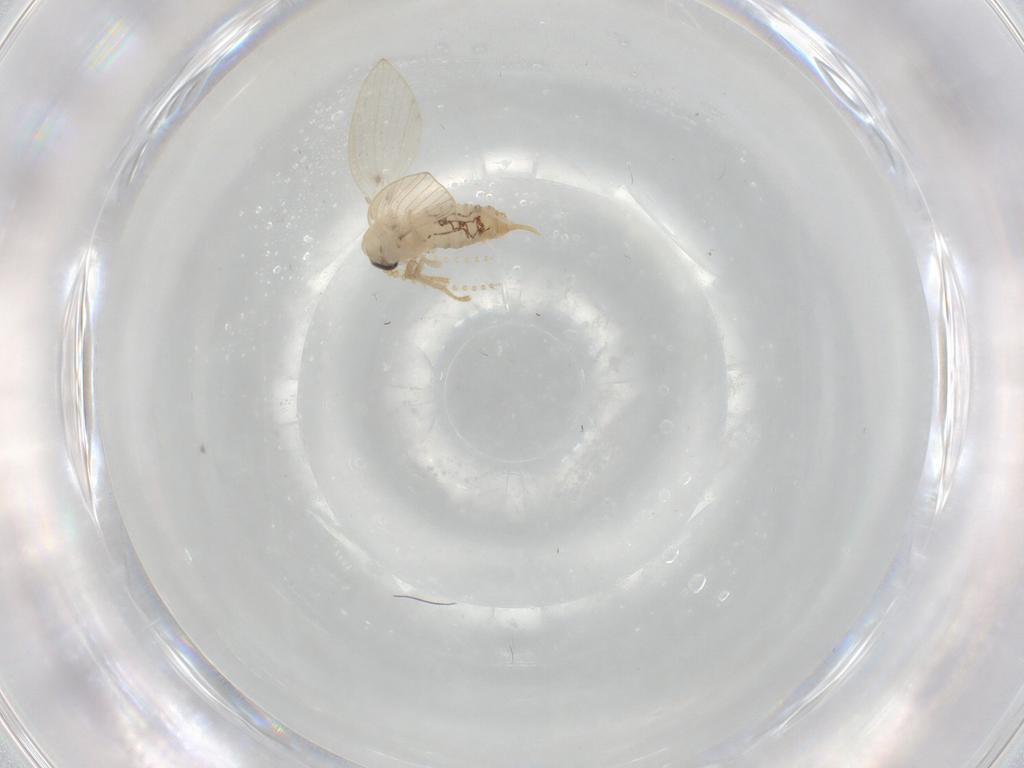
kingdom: Animalia
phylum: Arthropoda
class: Insecta
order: Diptera
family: Psychodidae
